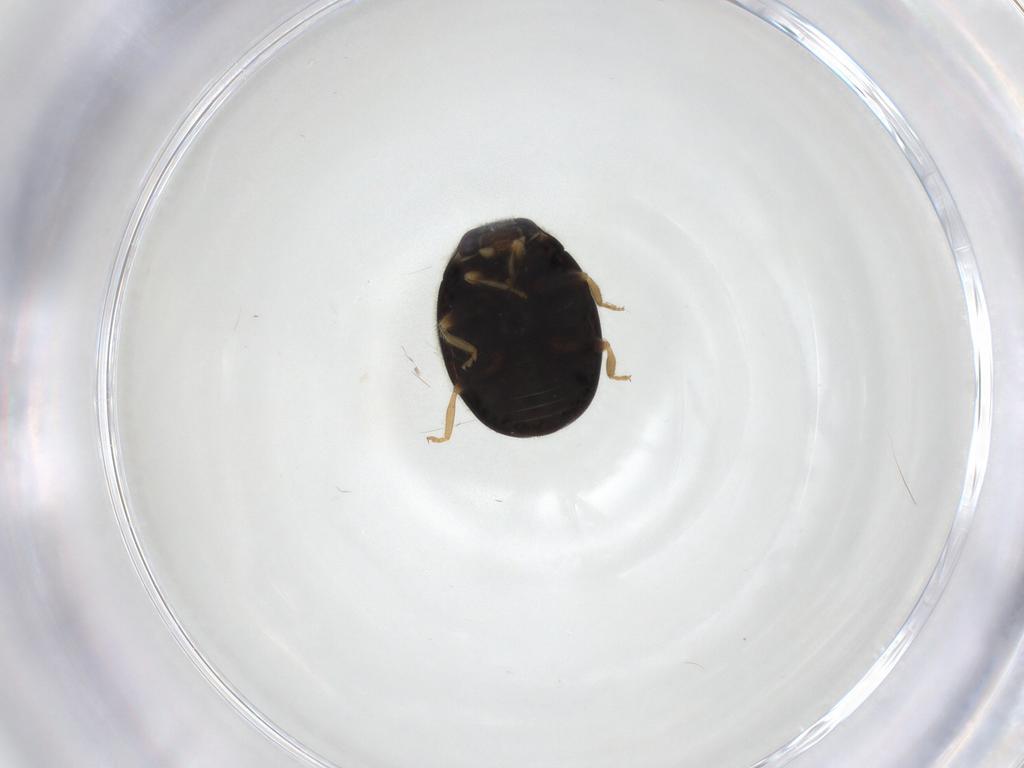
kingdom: Animalia
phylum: Arthropoda
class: Insecta
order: Coleoptera
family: Coccinellidae
